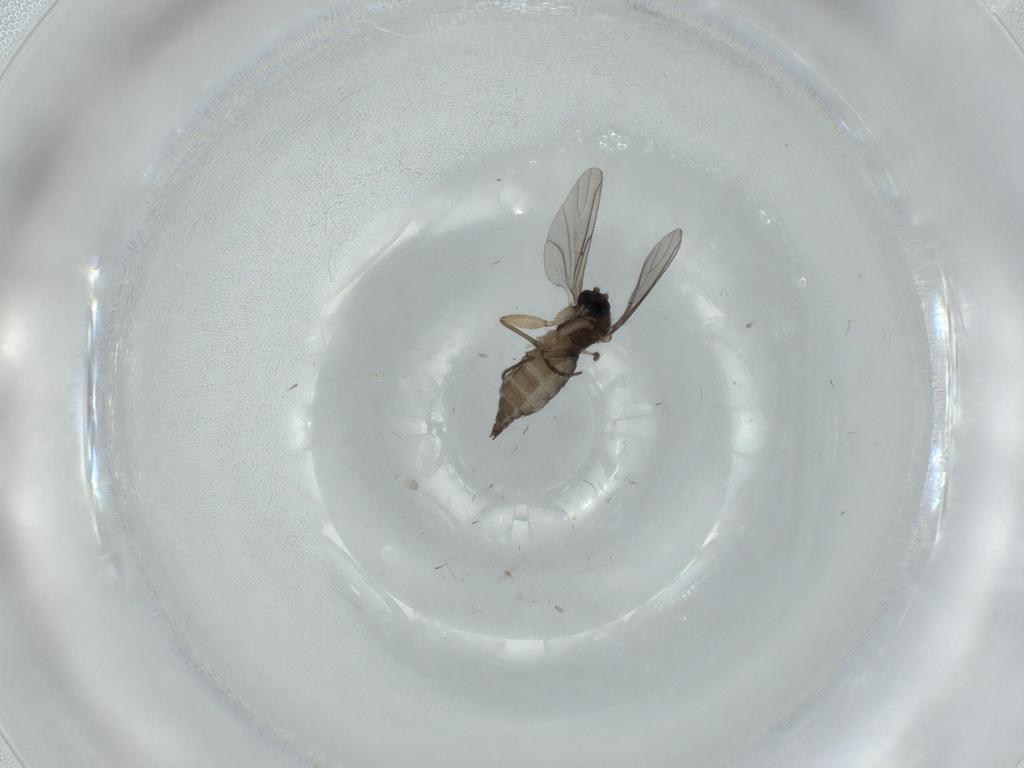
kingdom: Animalia
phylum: Arthropoda
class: Insecta
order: Diptera
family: Sciaridae
